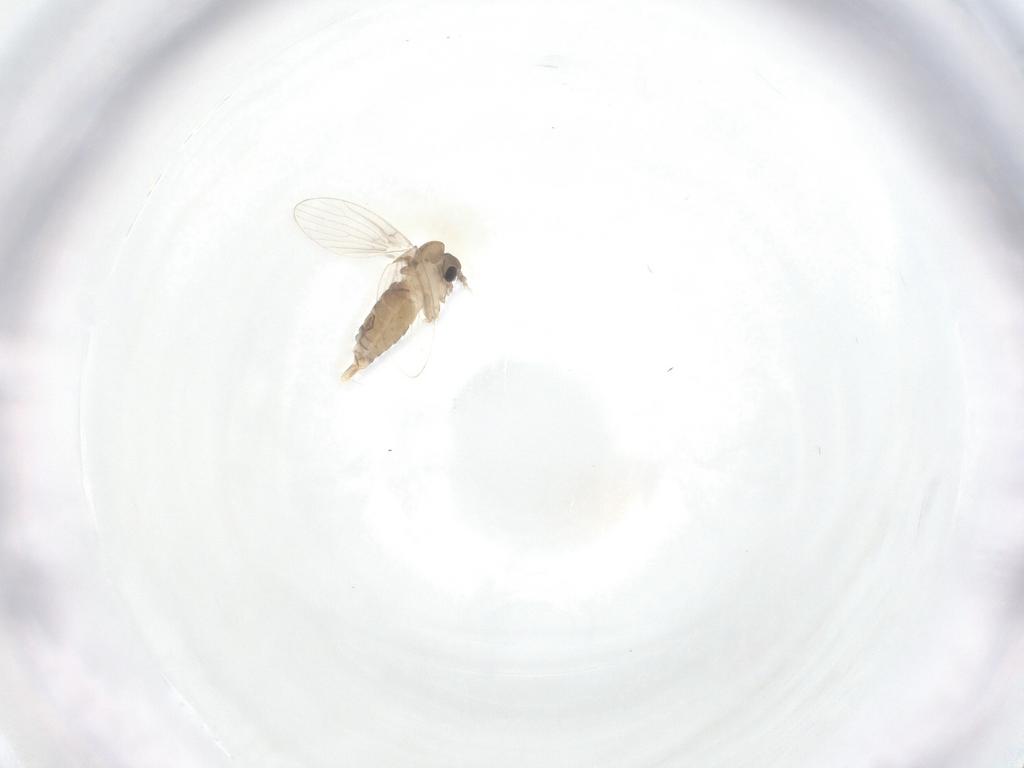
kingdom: Animalia
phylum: Arthropoda
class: Insecta
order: Diptera
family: Psychodidae
